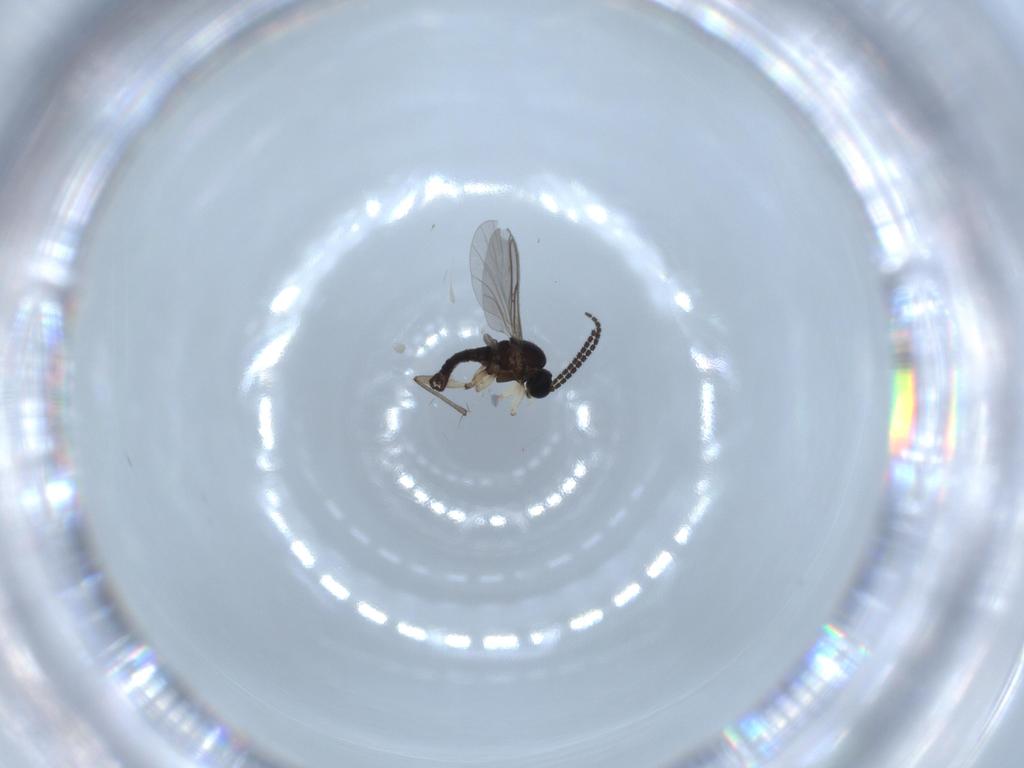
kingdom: Animalia
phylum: Arthropoda
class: Insecta
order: Diptera
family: Sciaridae
